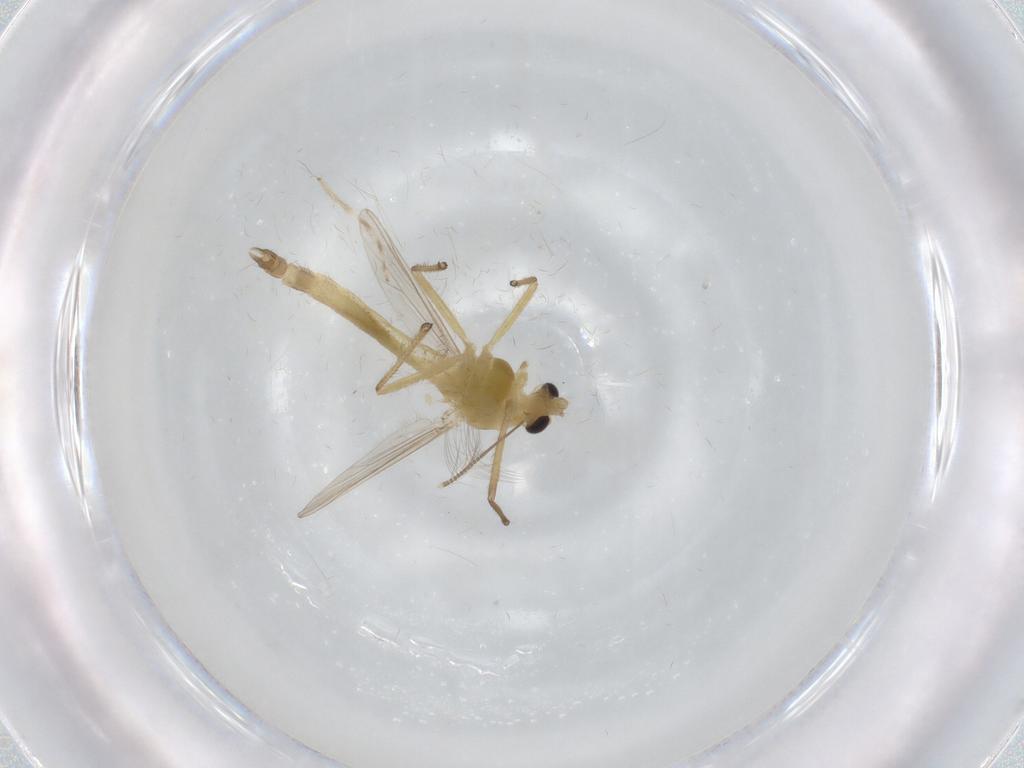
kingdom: Animalia
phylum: Arthropoda
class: Insecta
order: Diptera
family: Chironomidae
